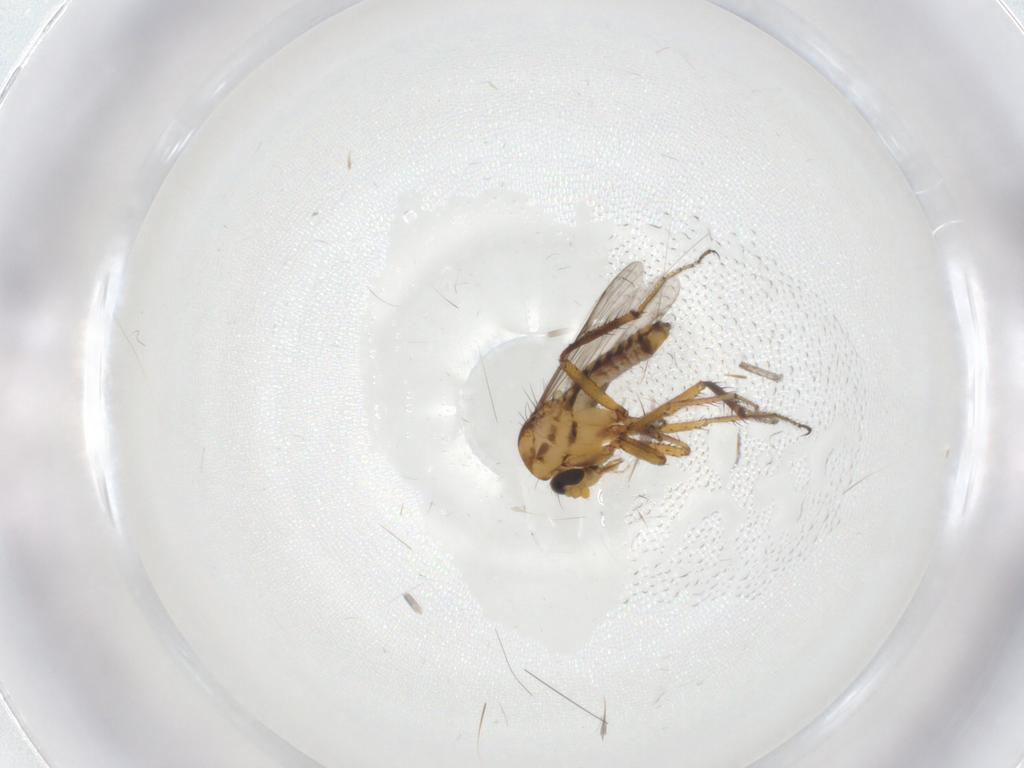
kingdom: Animalia
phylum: Arthropoda
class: Insecta
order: Diptera
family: Ceratopogonidae
